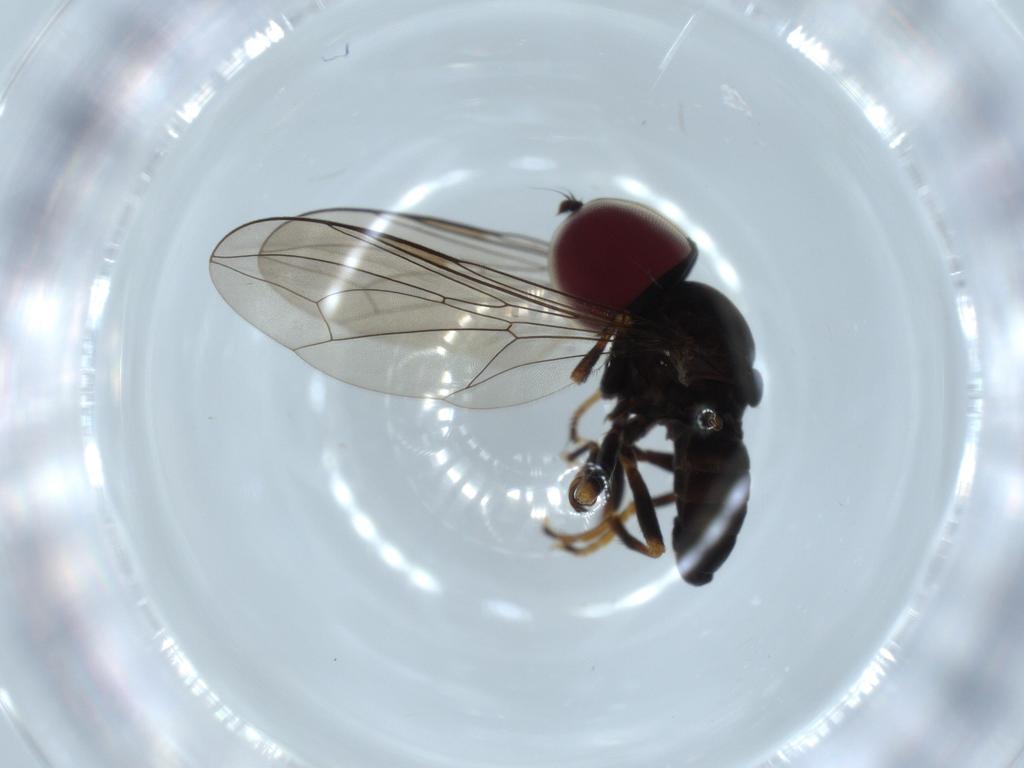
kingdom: Animalia
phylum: Arthropoda
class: Insecta
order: Diptera
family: Pipunculidae
